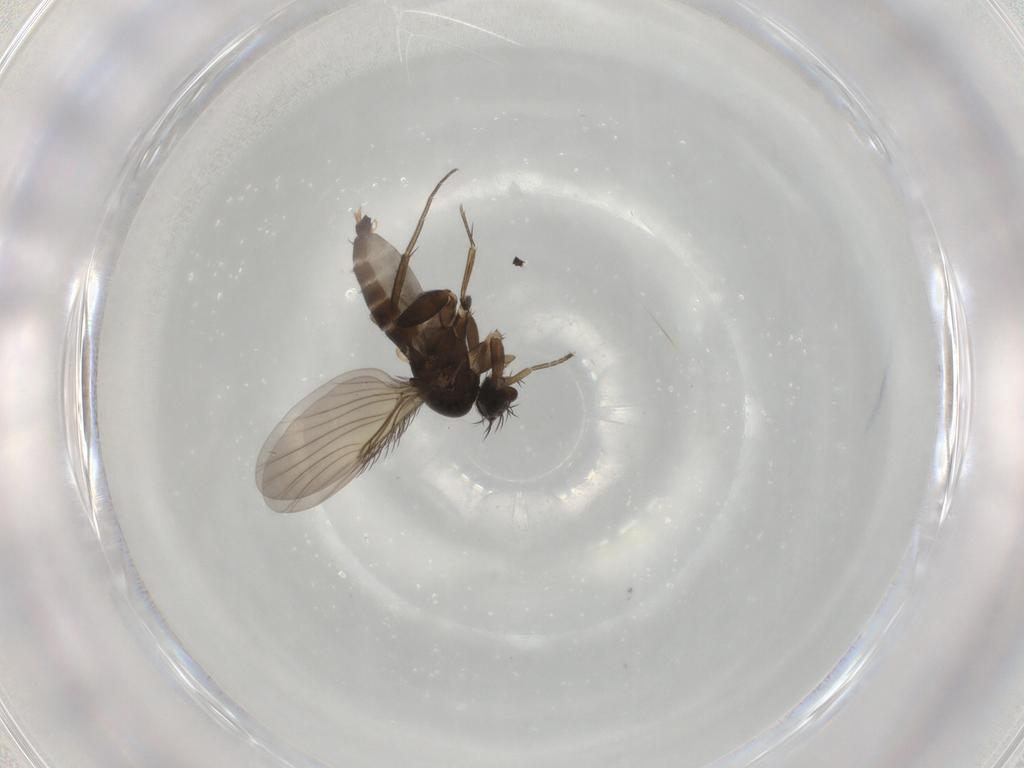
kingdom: Animalia
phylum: Arthropoda
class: Insecta
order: Diptera
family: Phoridae
